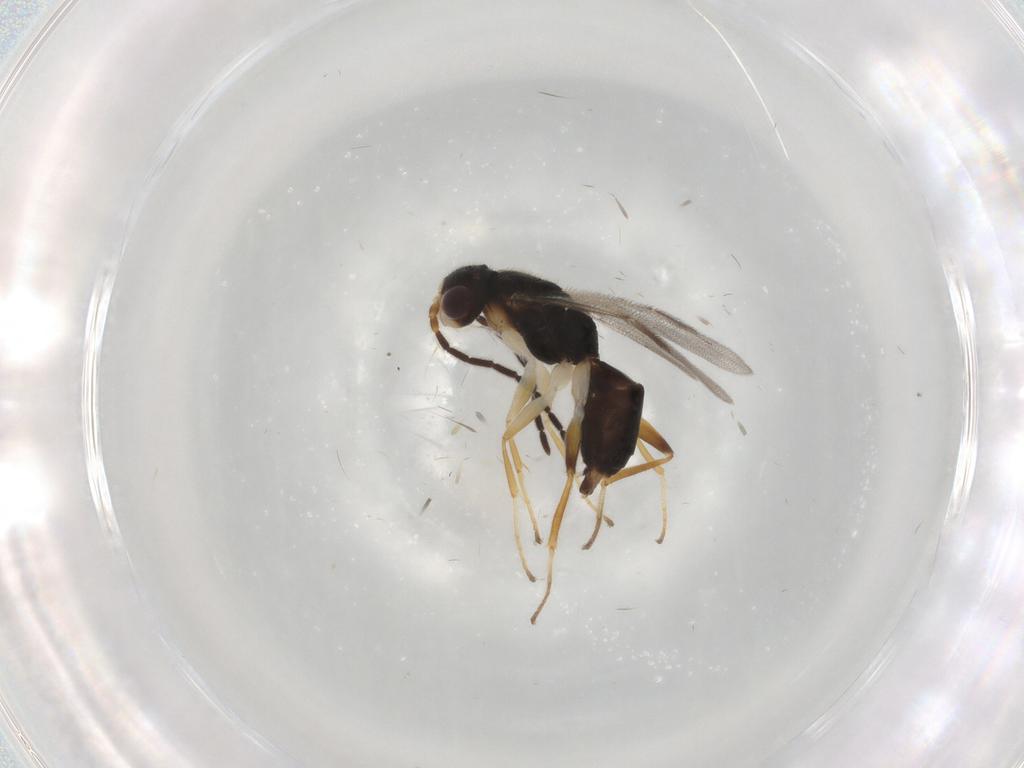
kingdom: Animalia
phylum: Arthropoda
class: Insecta
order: Hymenoptera
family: Dryinidae
